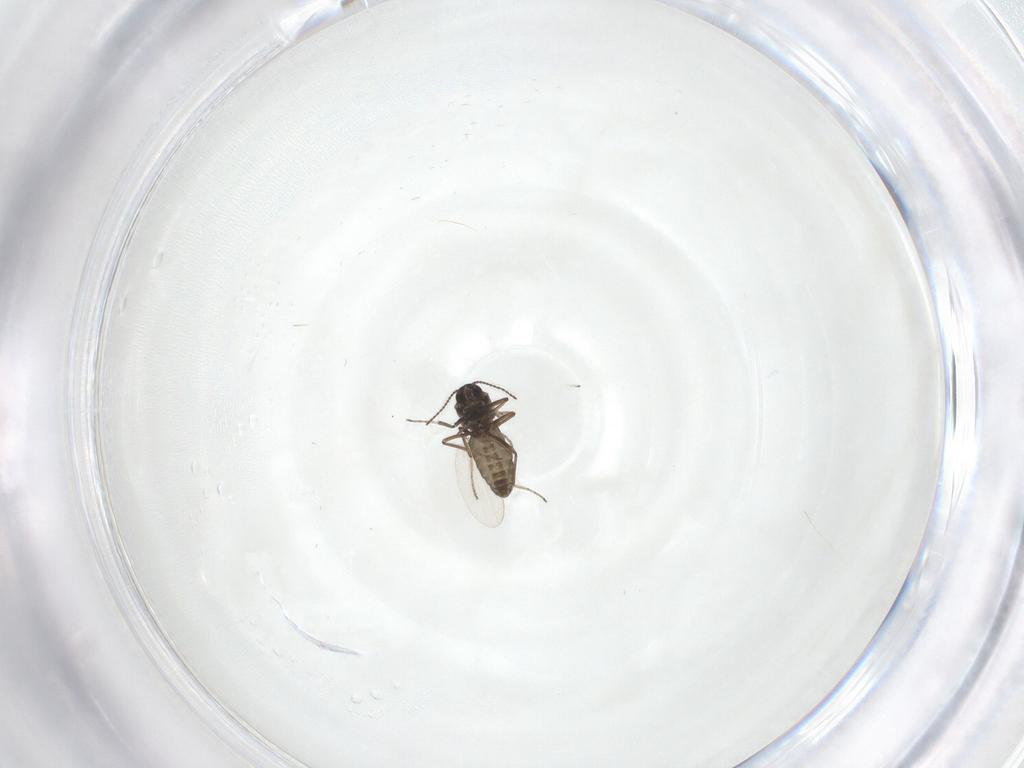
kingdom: Animalia
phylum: Arthropoda
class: Insecta
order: Diptera
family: Ceratopogonidae
